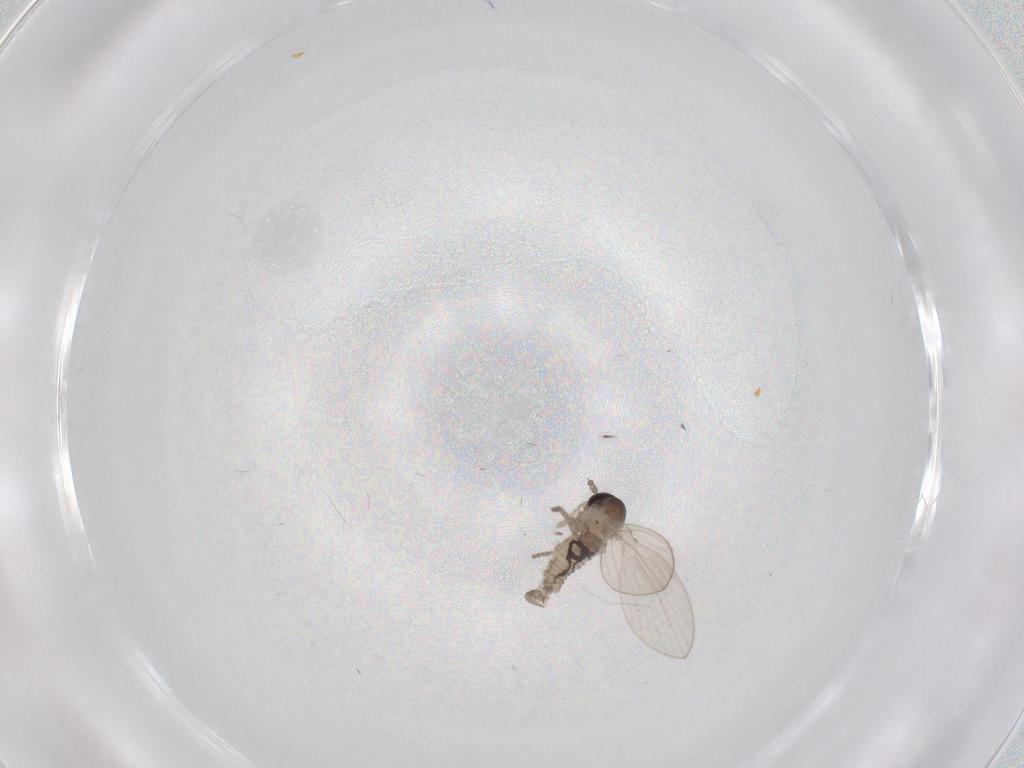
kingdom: Animalia
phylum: Arthropoda
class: Insecta
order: Diptera
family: Psychodidae
